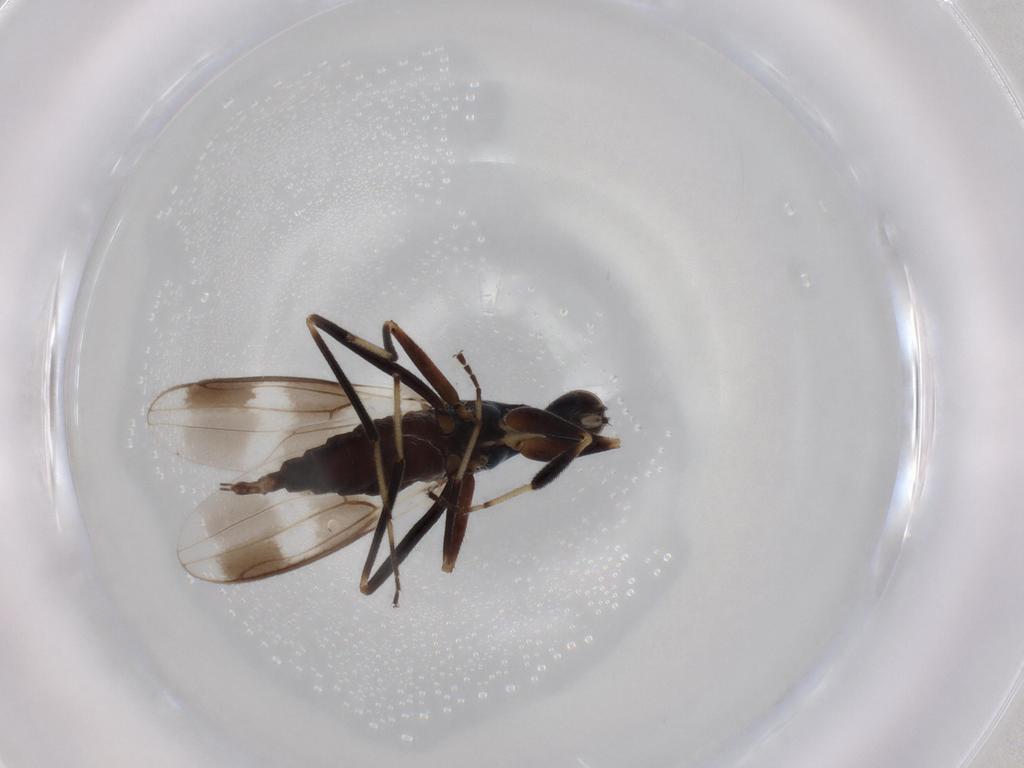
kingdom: Animalia
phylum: Arthropoda
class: Insecta
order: Diptera
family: Hybotidae
